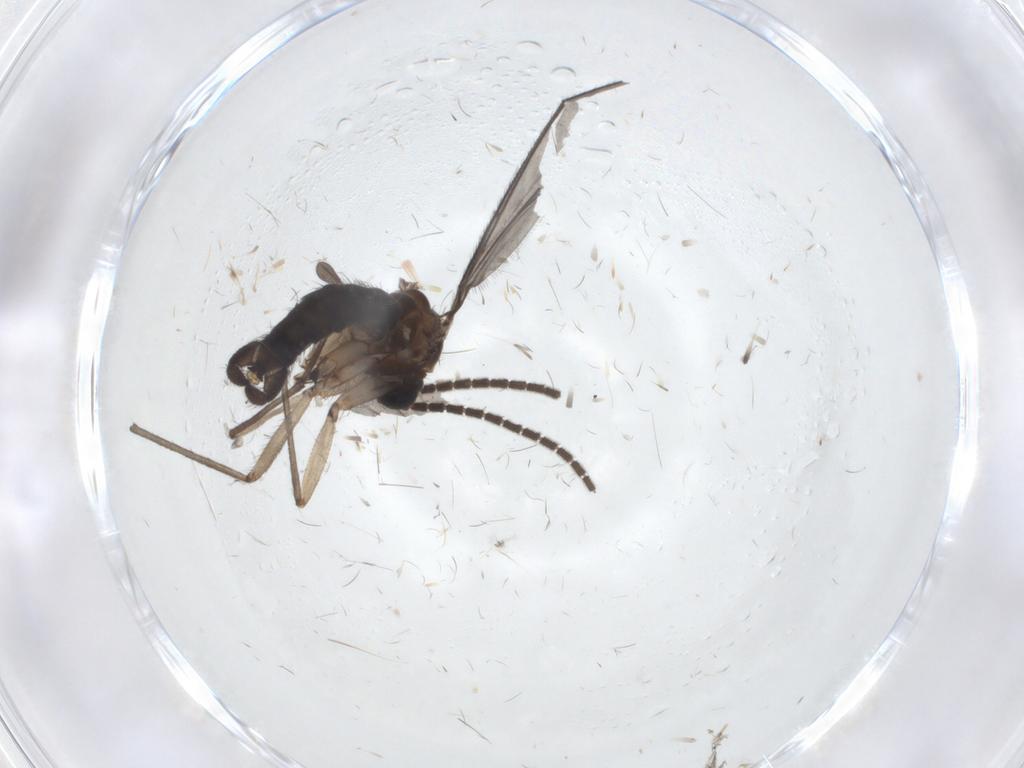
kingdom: Animalia
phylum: Arthropoda
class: Insecta
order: Diptera
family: Sciaridae
